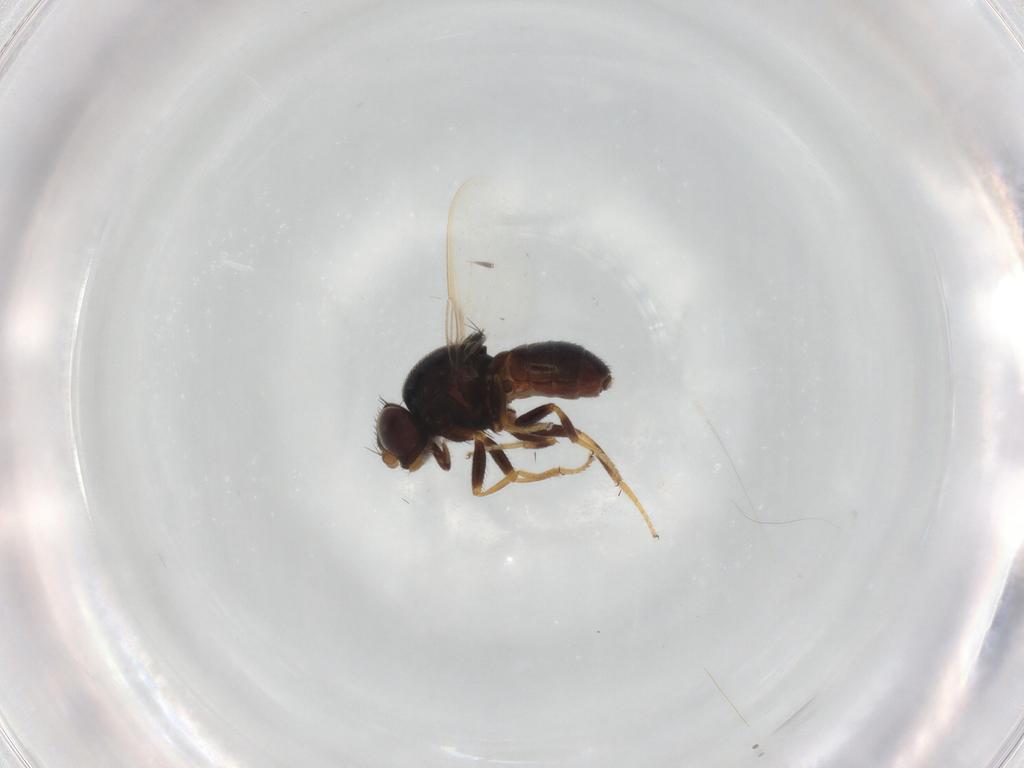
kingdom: Animalia
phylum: Arthropoda
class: Insecta
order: Diptera
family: Chloropidae
